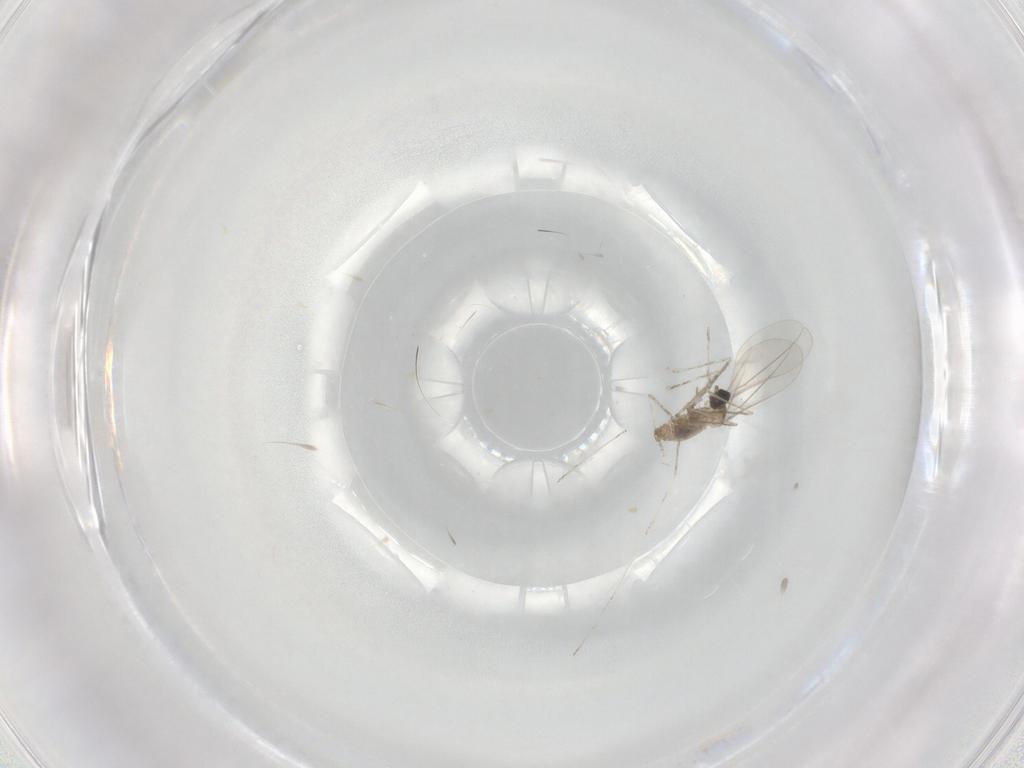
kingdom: Animalia
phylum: Arthropoda
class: Insecta
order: Diptera
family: Cecidomyiidae
